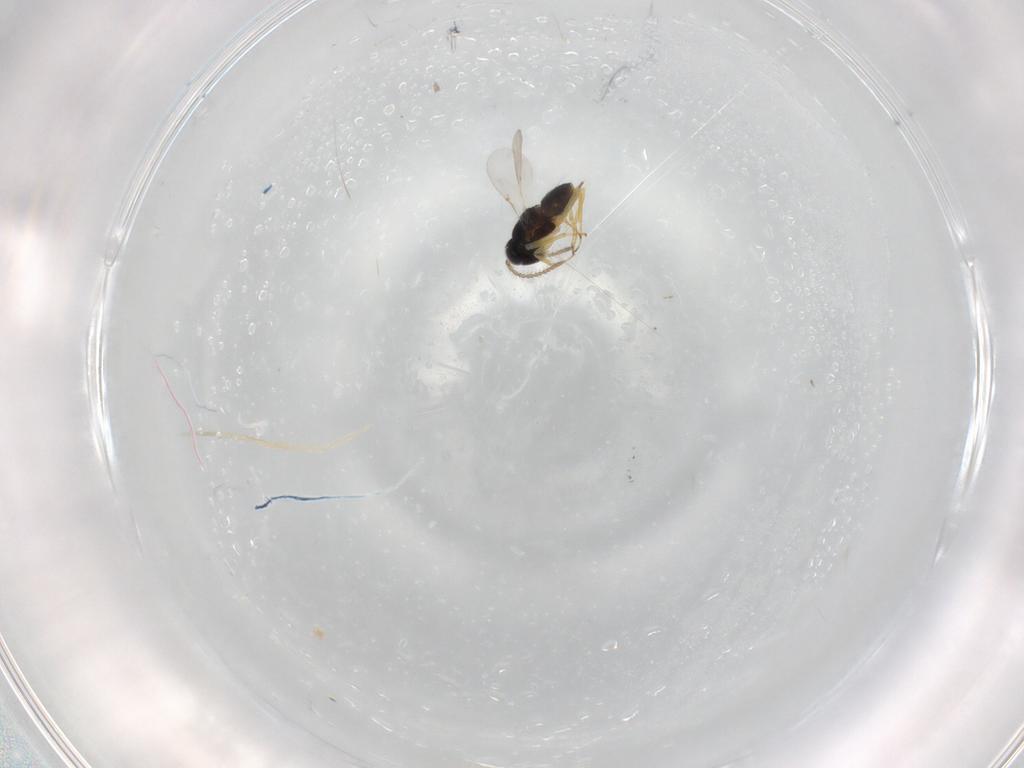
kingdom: Animalia
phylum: Arthropoda
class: Insecta
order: Hymenoptera
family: Encyrtidae
